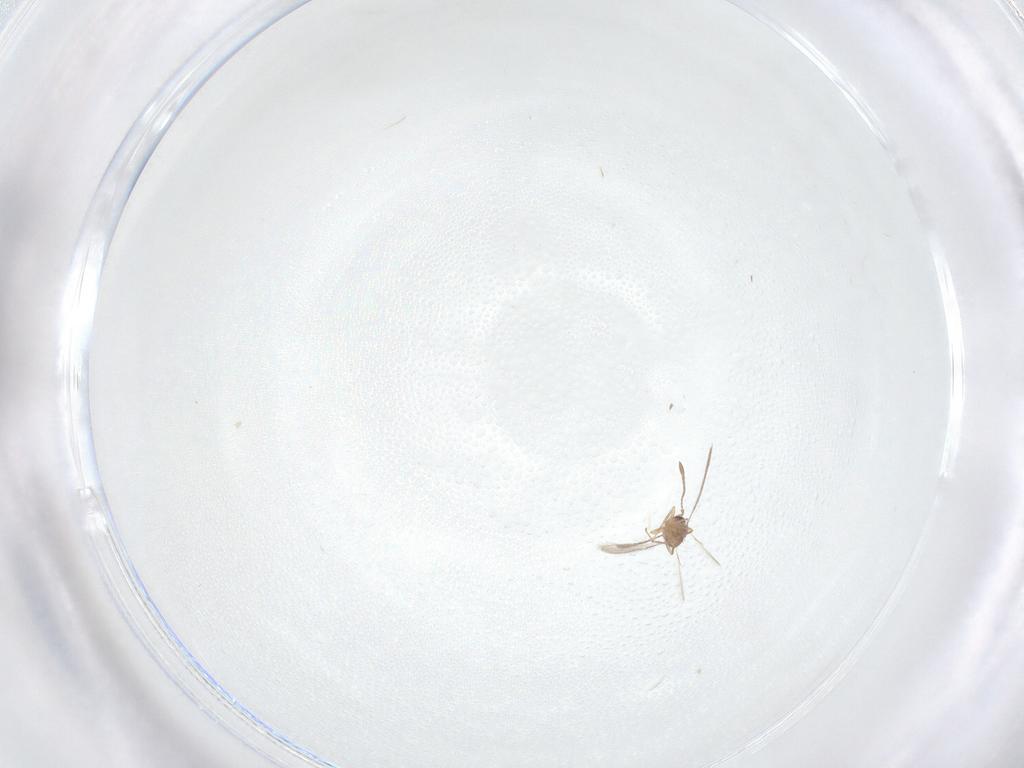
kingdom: Animalia
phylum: Arthropoda
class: Insecta
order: Hymenoptera
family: Mymaridae
